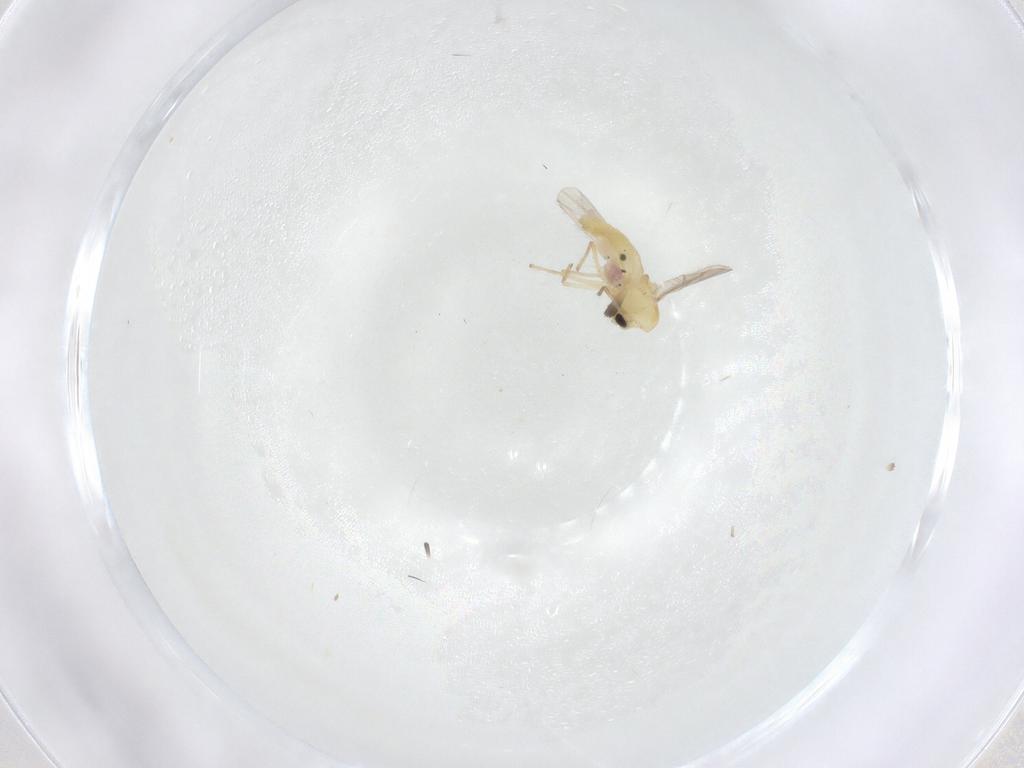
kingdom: Animalia
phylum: Arthropoda
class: Insecta
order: Diptera
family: Chironomidae
